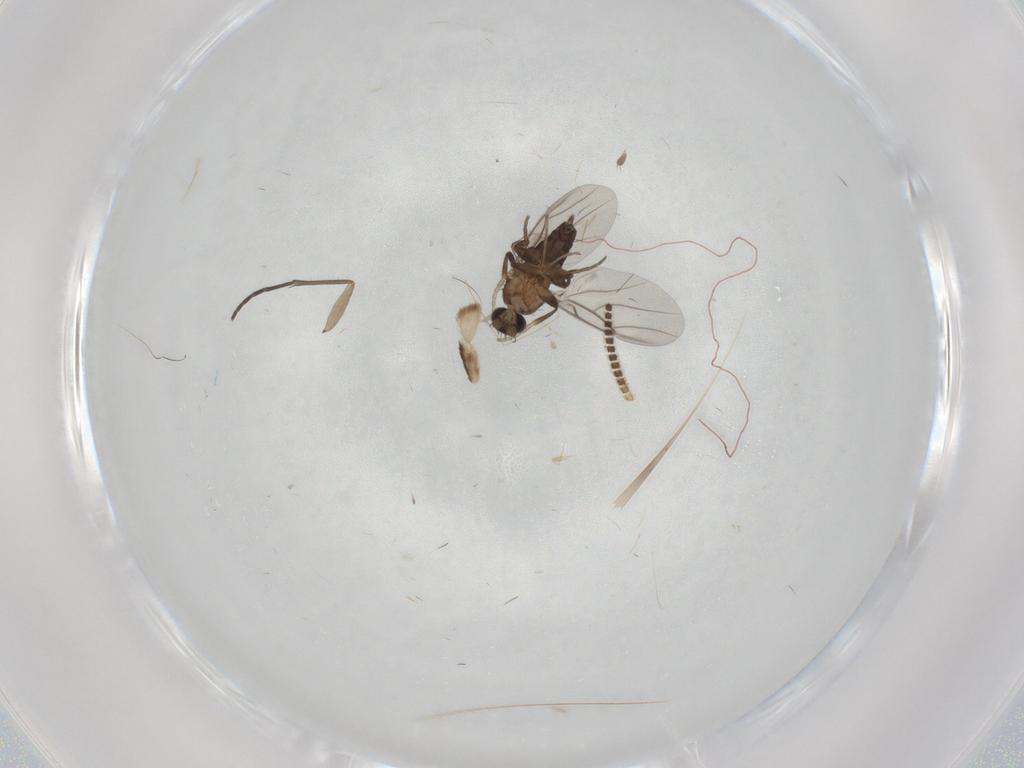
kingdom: Animalia
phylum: Arthropoda
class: Insecta
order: Diptera
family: Phoridae
